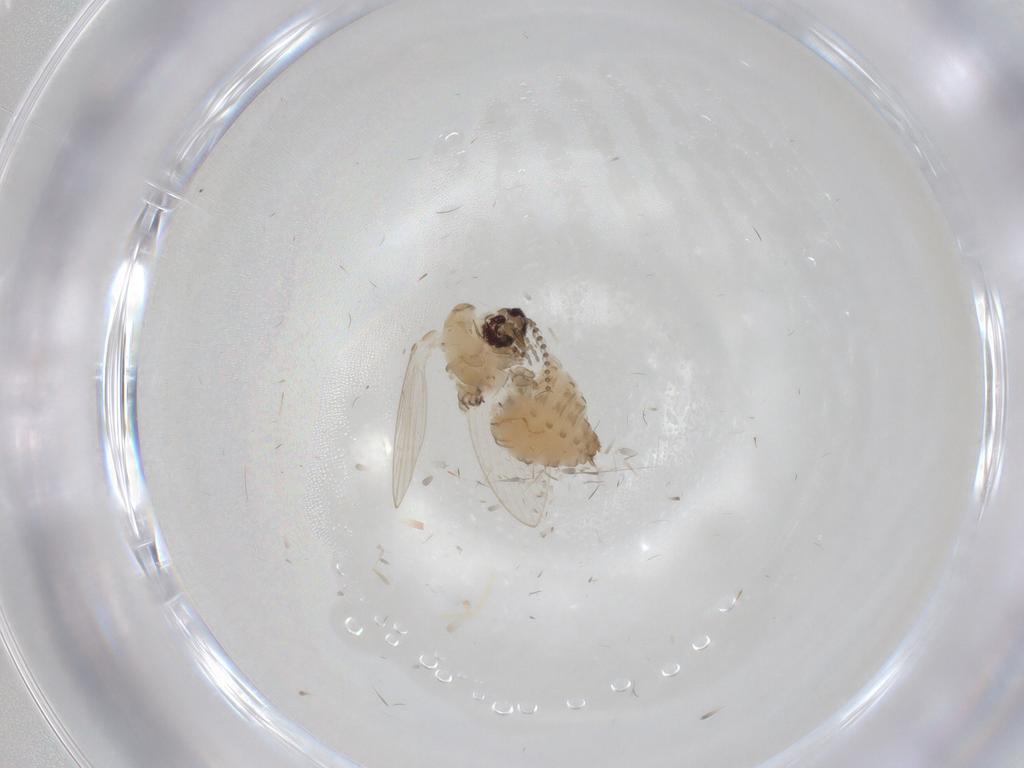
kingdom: Animalia
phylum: Arthropoda
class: Insecta
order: Diptera
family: Psychodidae
